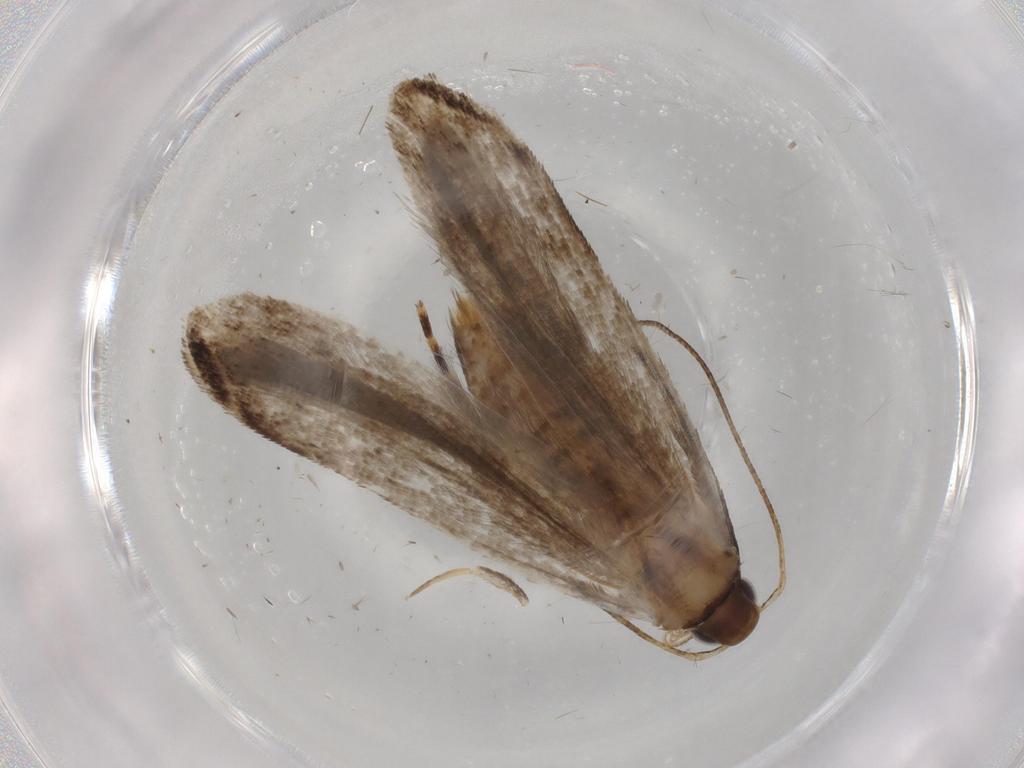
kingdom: Animalia
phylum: Arthropoda
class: Insecta
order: Lepidoptera
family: Gelechiidae
